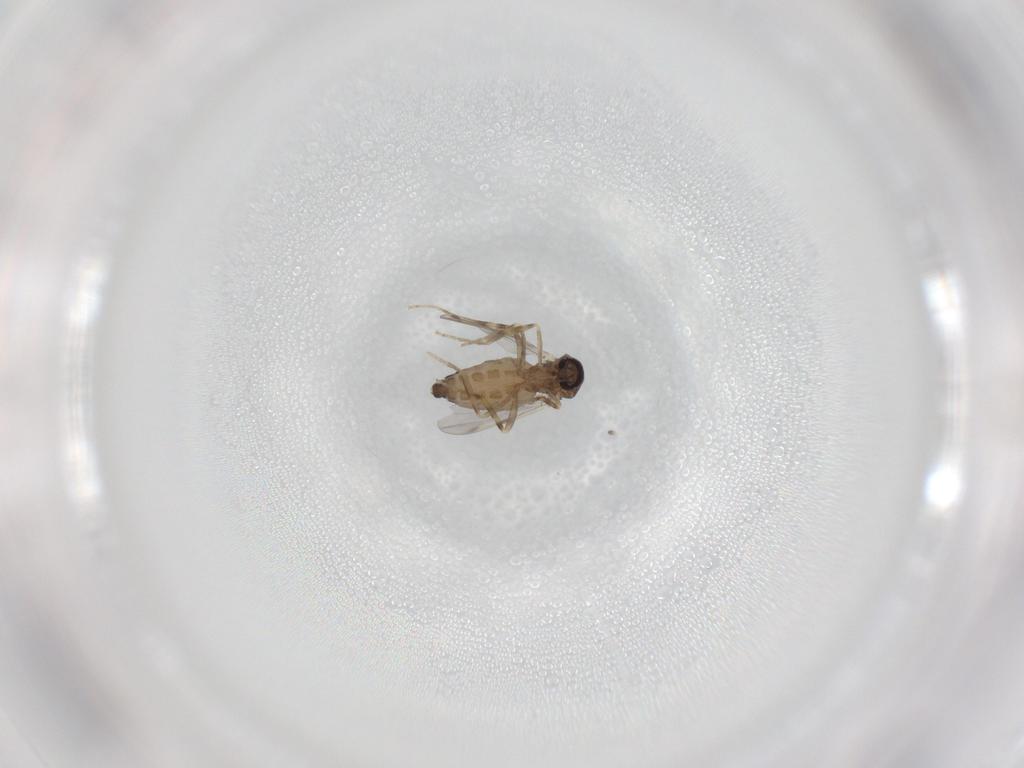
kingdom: Animalia
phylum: Arthropoda
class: Insecta
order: Diptera
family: Ceratopogonidae
